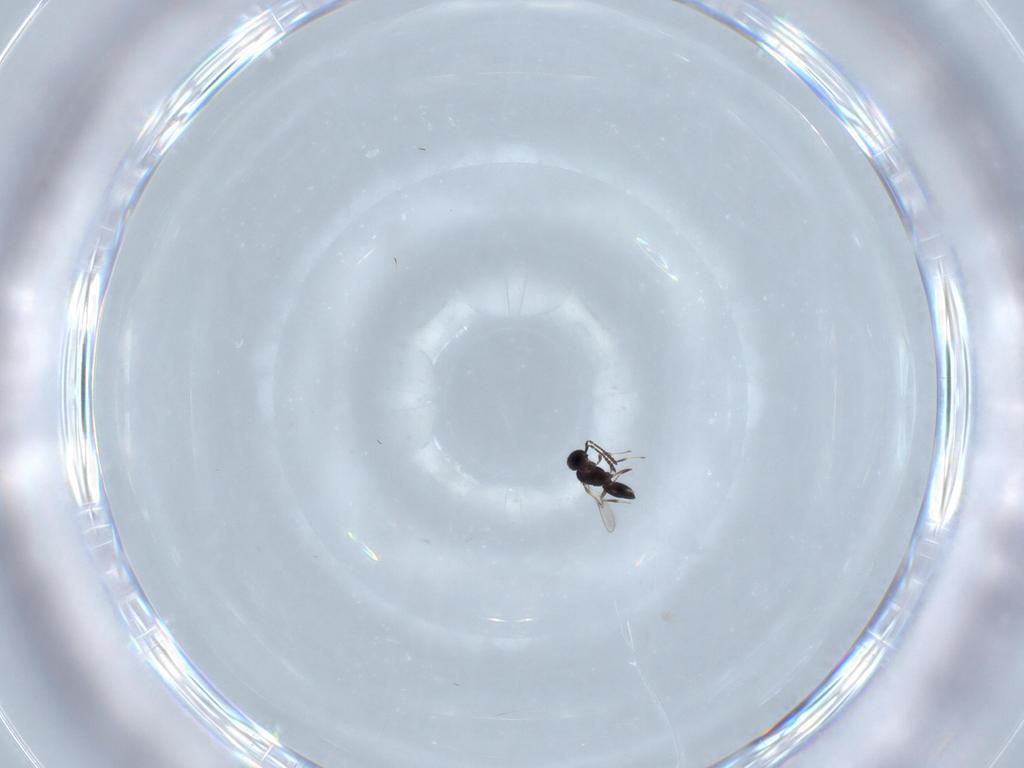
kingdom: Animalia
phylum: Arthropoda
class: Insecta
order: Hymenoptera
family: Scelionidae
